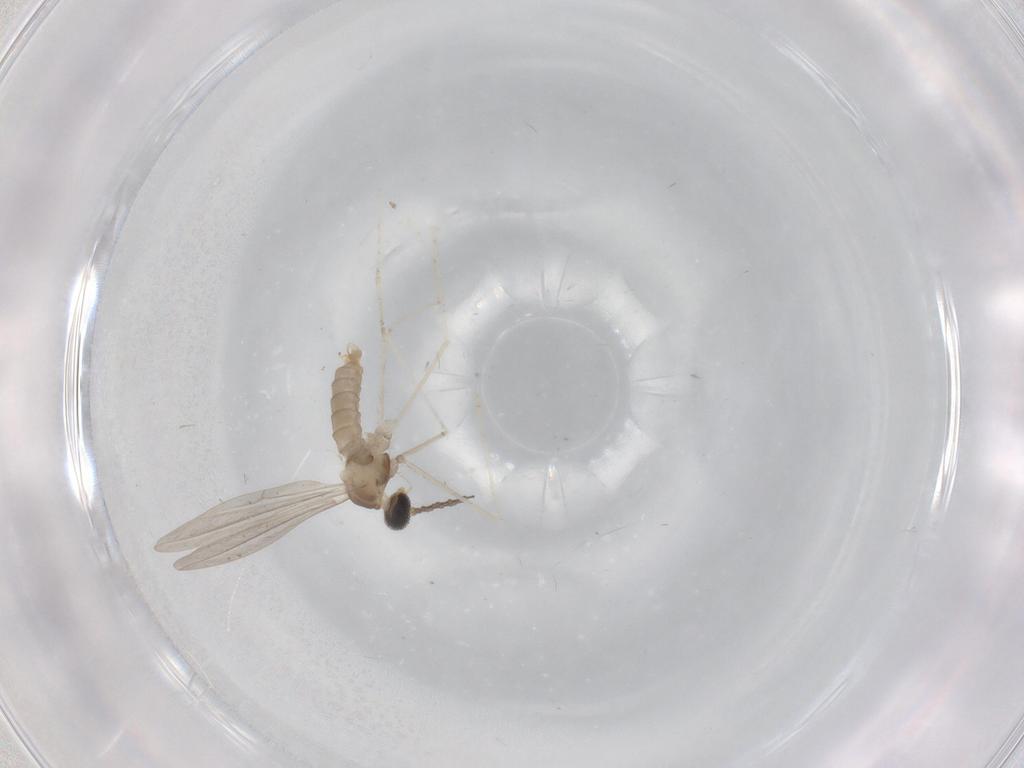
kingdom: Animalia
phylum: Arthropoda
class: Insecta
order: Diptera
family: Cecidomyiidae
